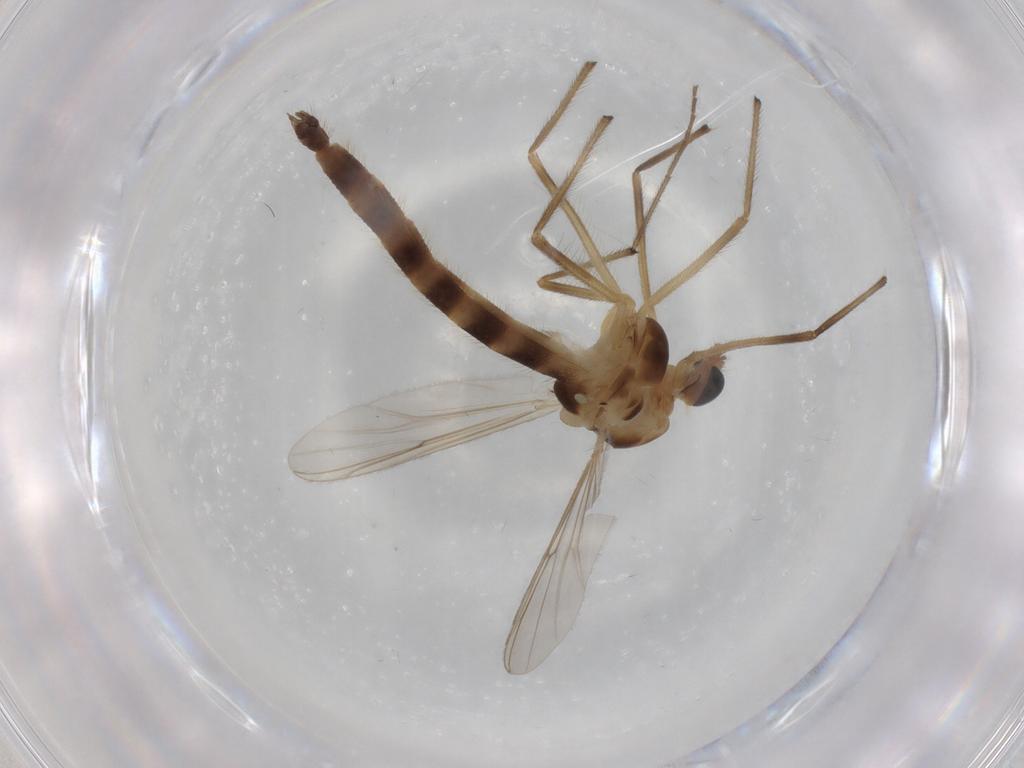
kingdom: Animalia
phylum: Arthropoda
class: Insecta
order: Diptera
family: Chironomidae
